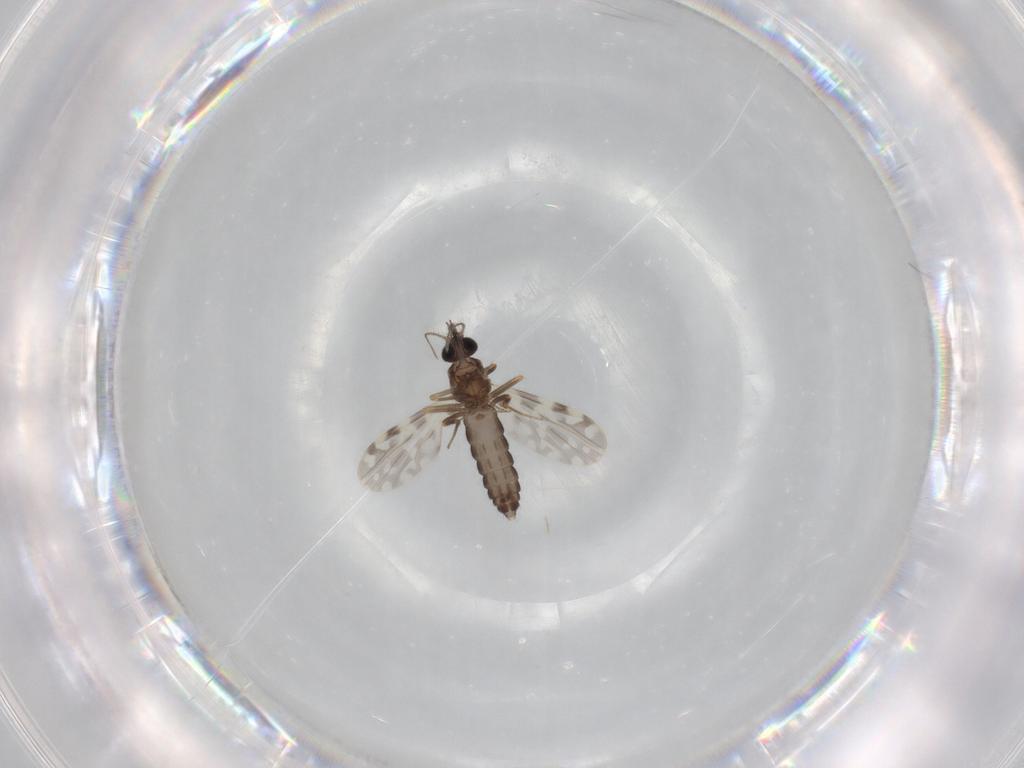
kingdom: Animalia
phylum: Arthropoda
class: Insecta
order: Diptera
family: Ceratopogonidae
